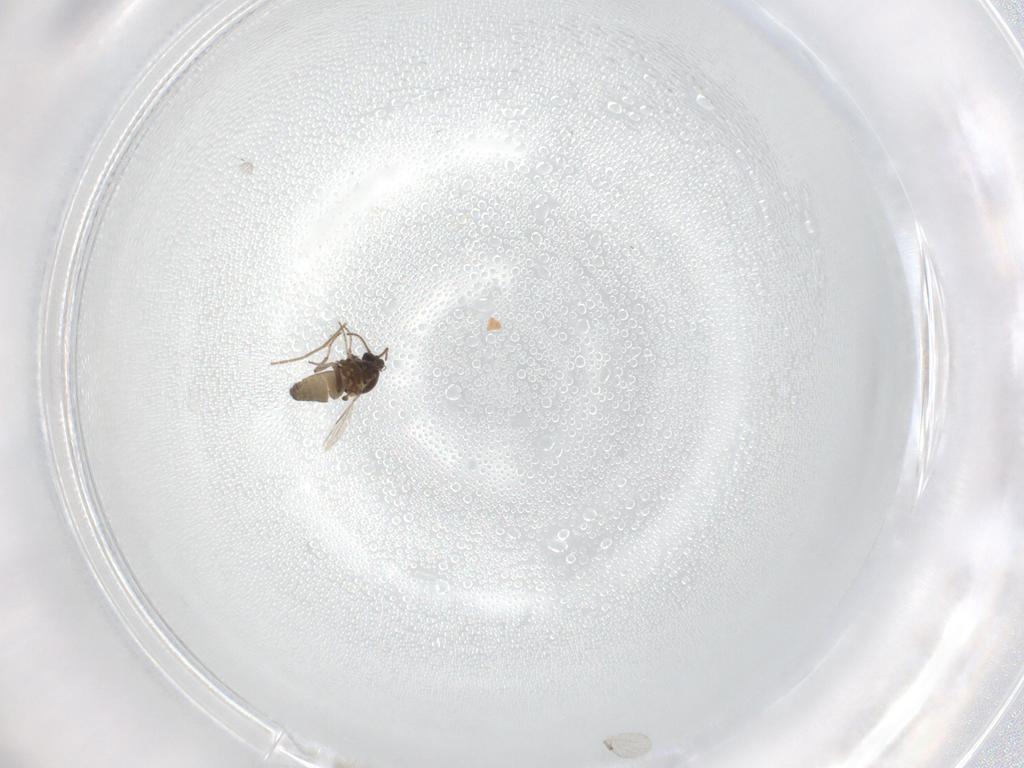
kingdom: Animalia
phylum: Arthropoda
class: Insecta
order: Diptera
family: Ceratopogonidae
